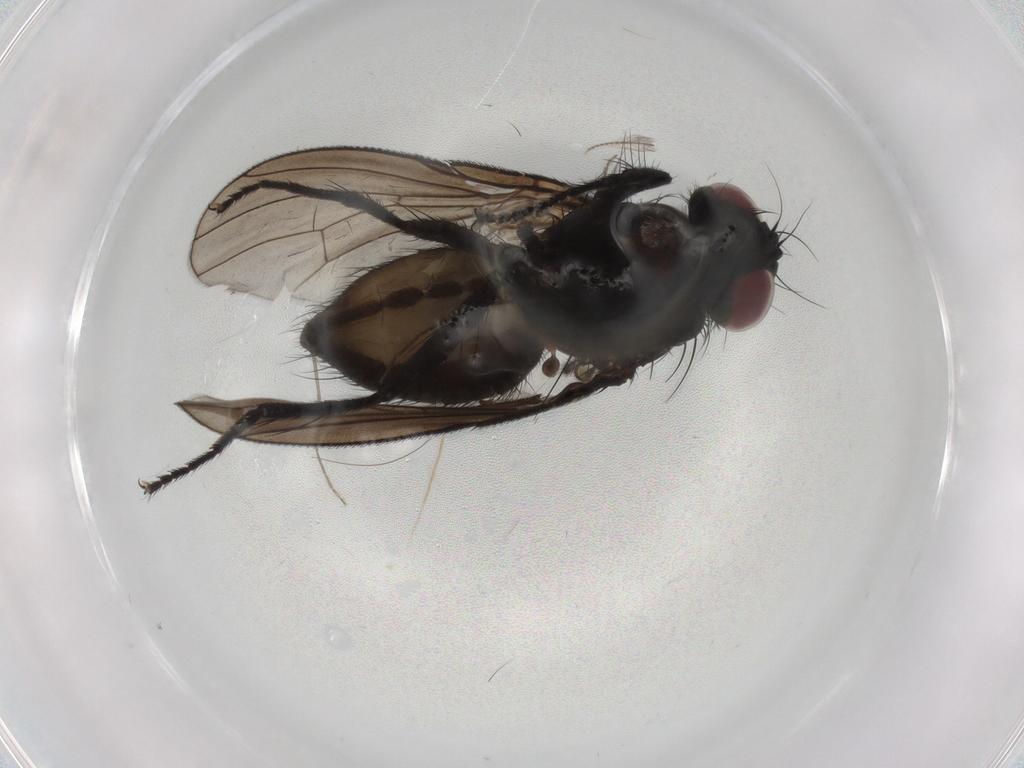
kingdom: Animalia
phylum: Arthropoda
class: Insecta
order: Diptera
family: Muscidae
